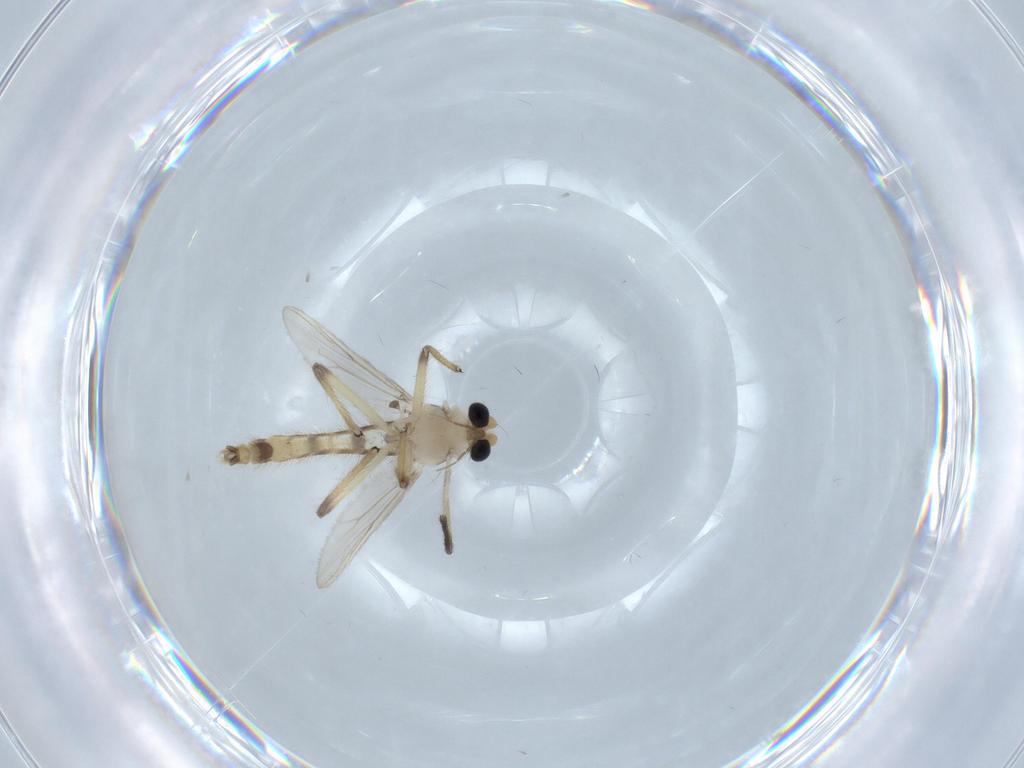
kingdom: Animalia
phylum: Arthropoda
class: Insecta
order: Diptera
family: Chironomidae
